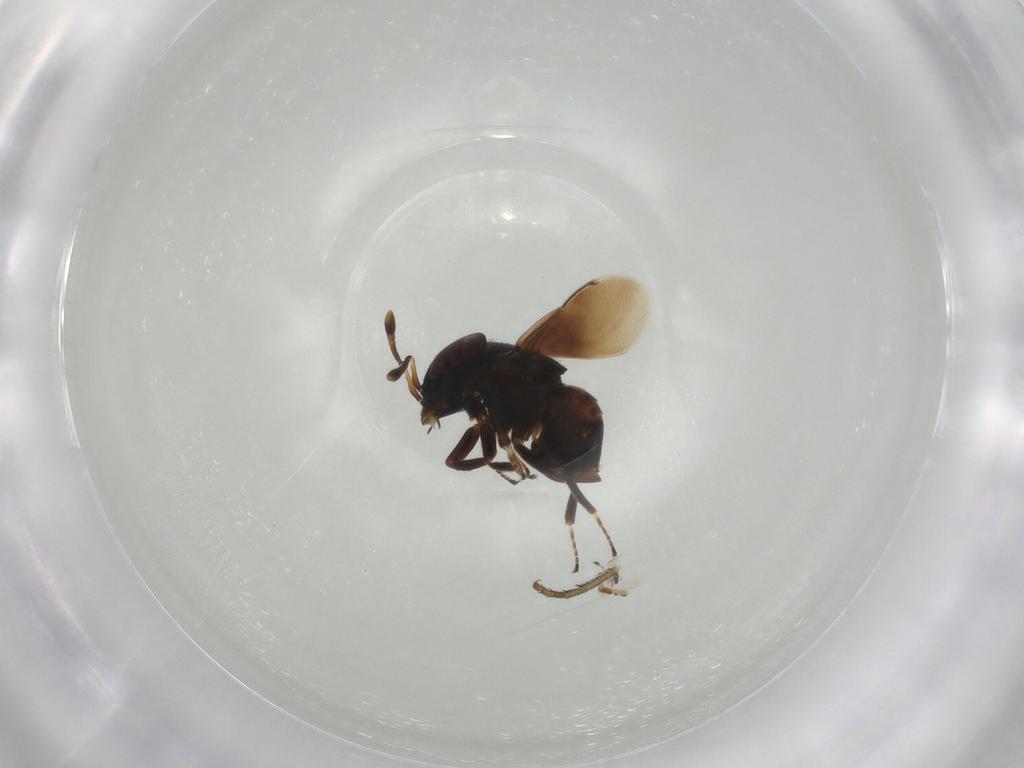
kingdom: Animalia
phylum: Arthropoda
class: Insecta
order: Hymenoptera
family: Encyrtidae
